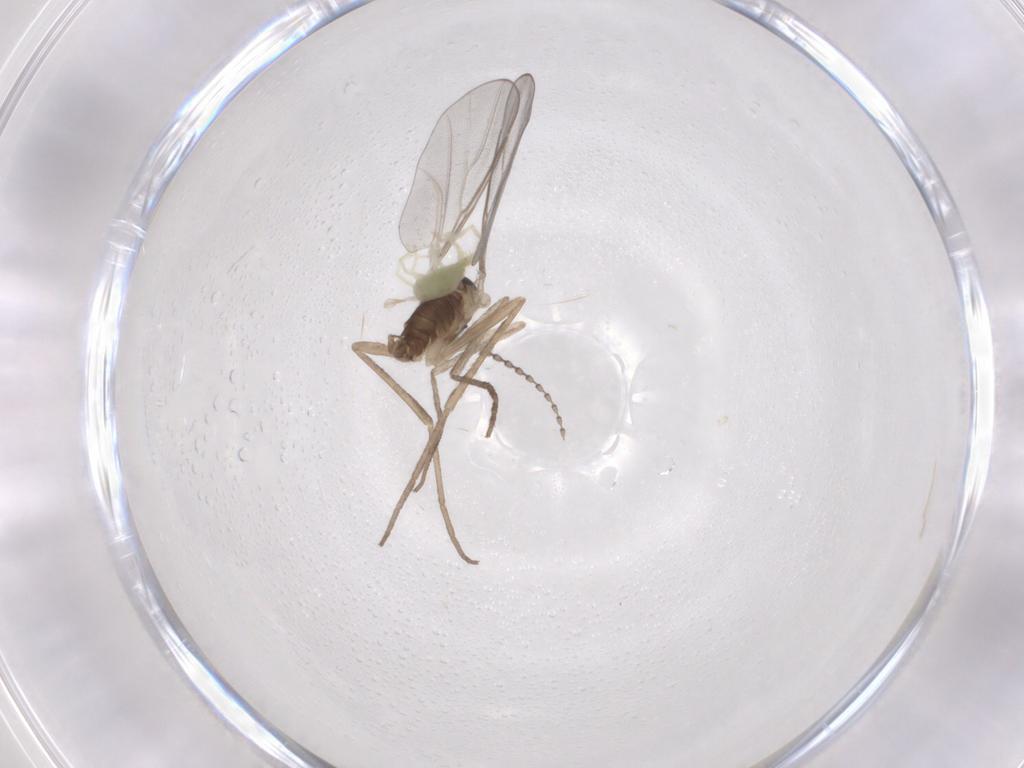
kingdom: Animalia
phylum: Arthropoda
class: Insecta
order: Diptera
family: Cecidomyiidae
